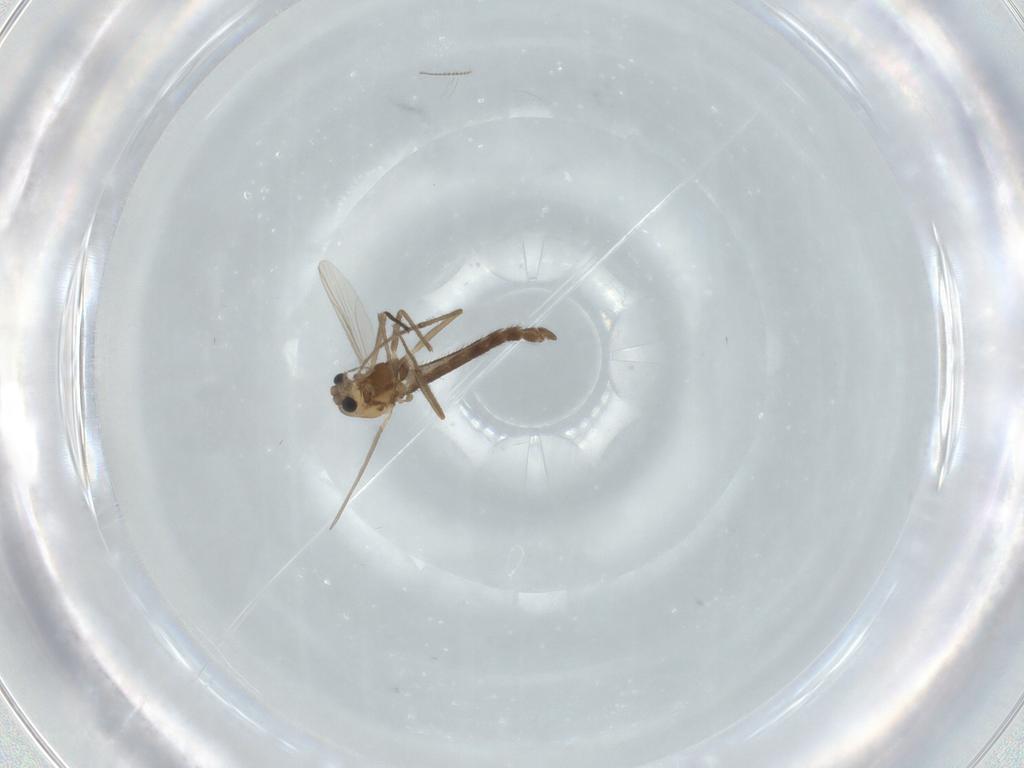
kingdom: Animalia
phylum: Arthropoda
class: Insecta
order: Diptera
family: Chironomidae
